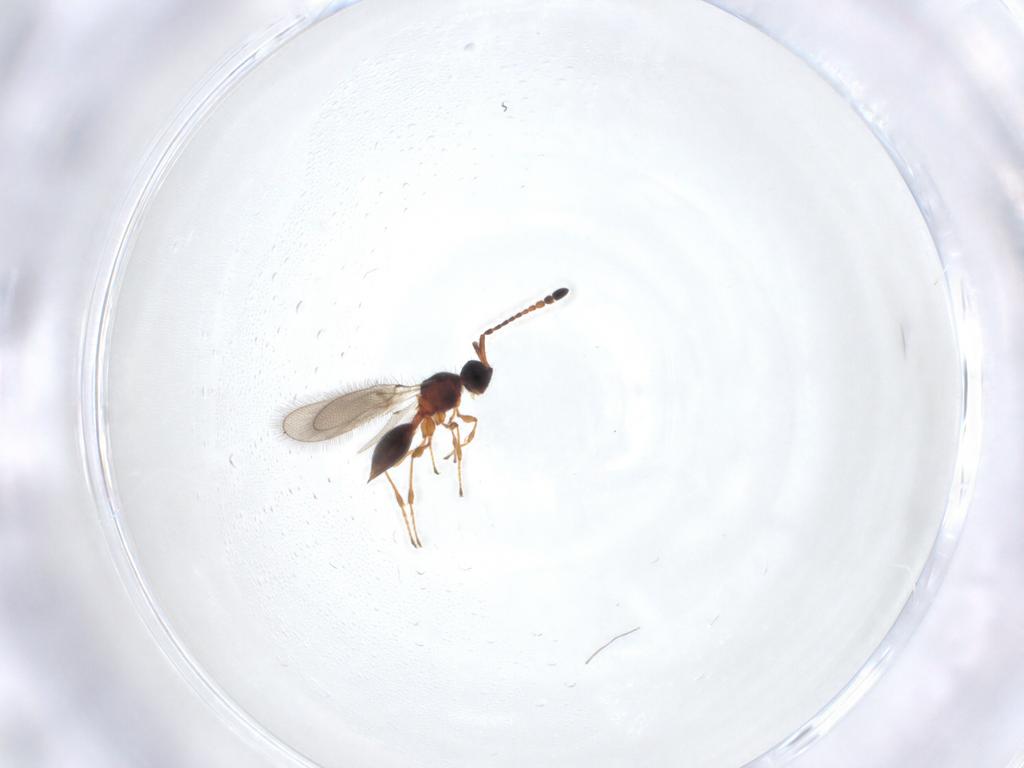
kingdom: Animalia
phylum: Arthropoda
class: Insecta
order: Hymenoptera
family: Diapriidae
